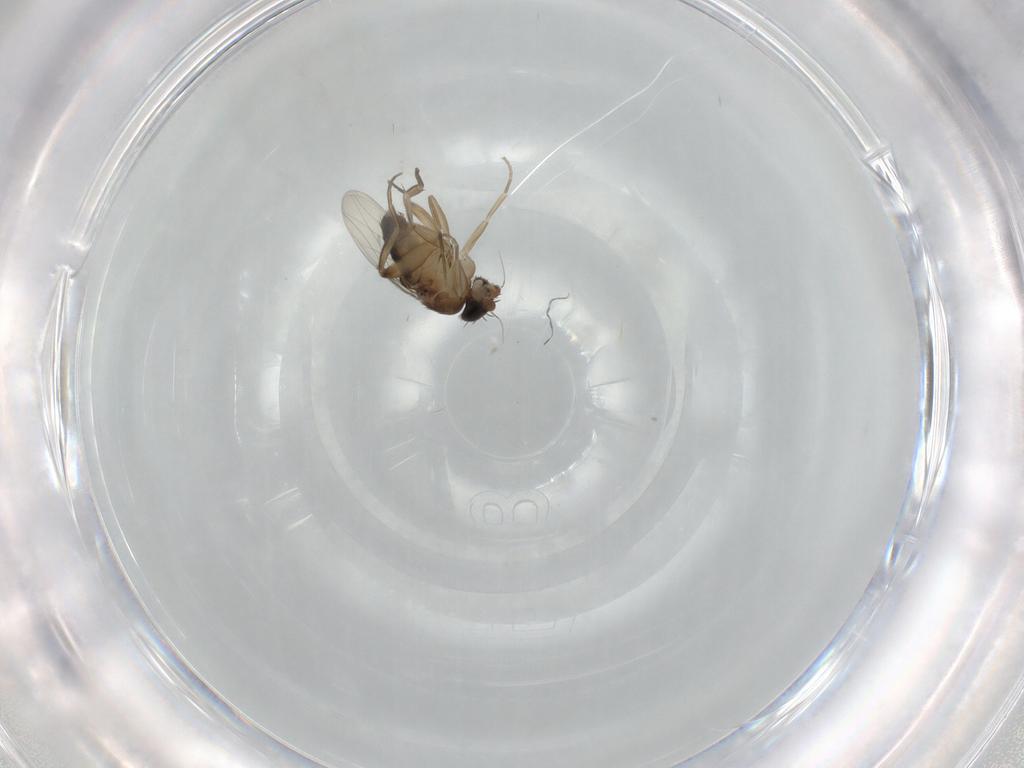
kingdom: Animalia
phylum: Arthropoda
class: Insecta
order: Diptera
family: Phoridae
